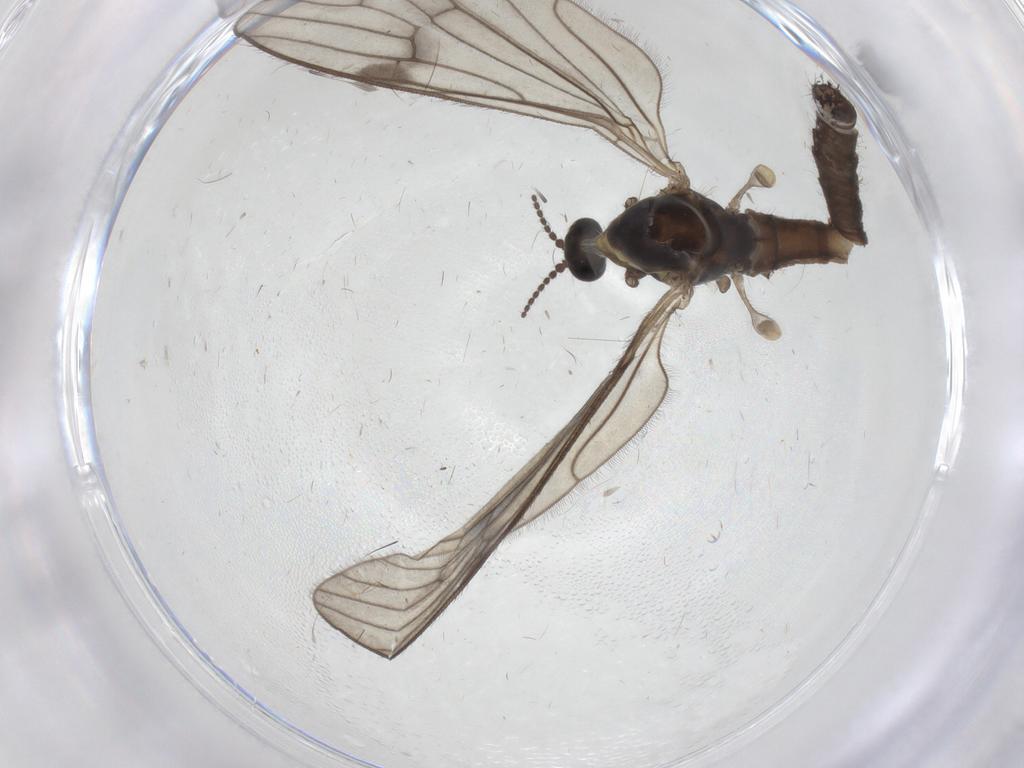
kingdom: Animalia
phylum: Arthropoda
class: Insecta
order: Diptera
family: Limoniidae
